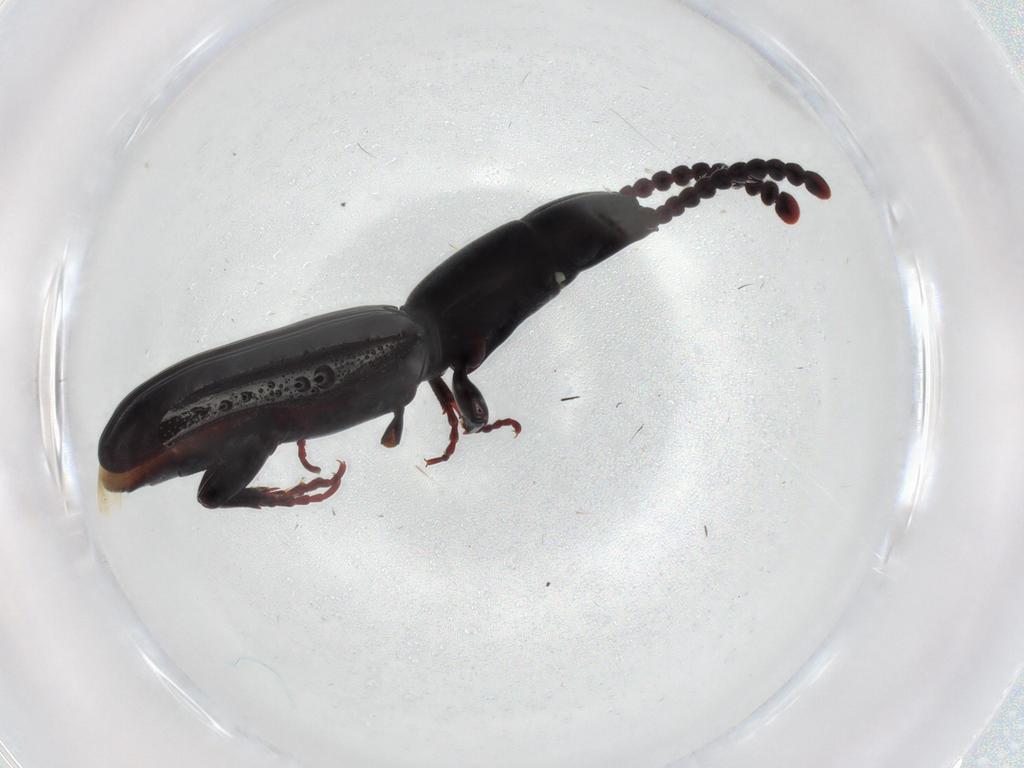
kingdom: Animalia
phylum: Arthropoda
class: Insecta
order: Coleoptera
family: Passandridae
